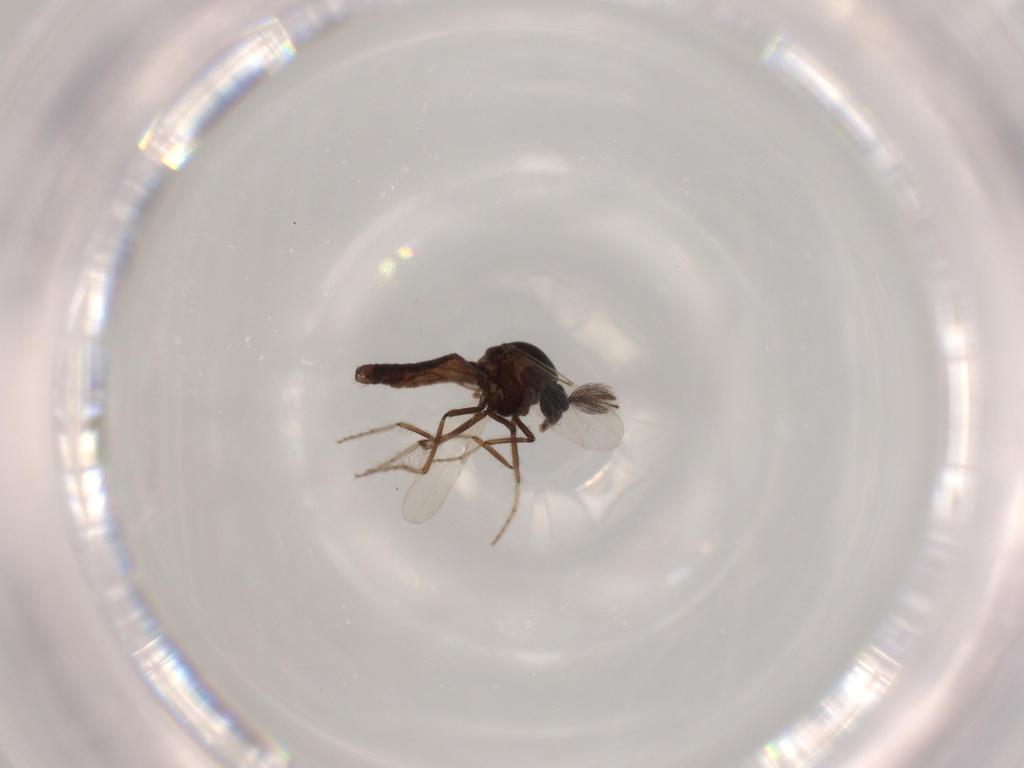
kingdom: Animalia
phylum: Arthropoda
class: Insecta
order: Diptera
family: Chironomidae
